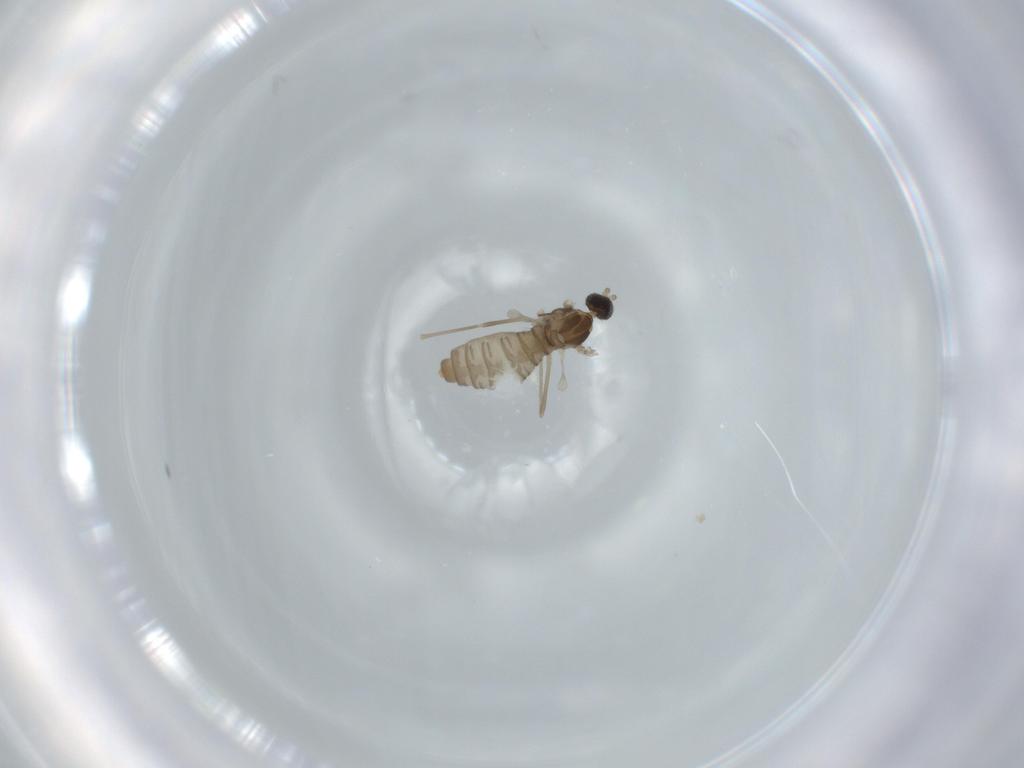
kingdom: Animalia
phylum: Arthropoda
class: Insecta
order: Diptera
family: Cecidomyiidae
